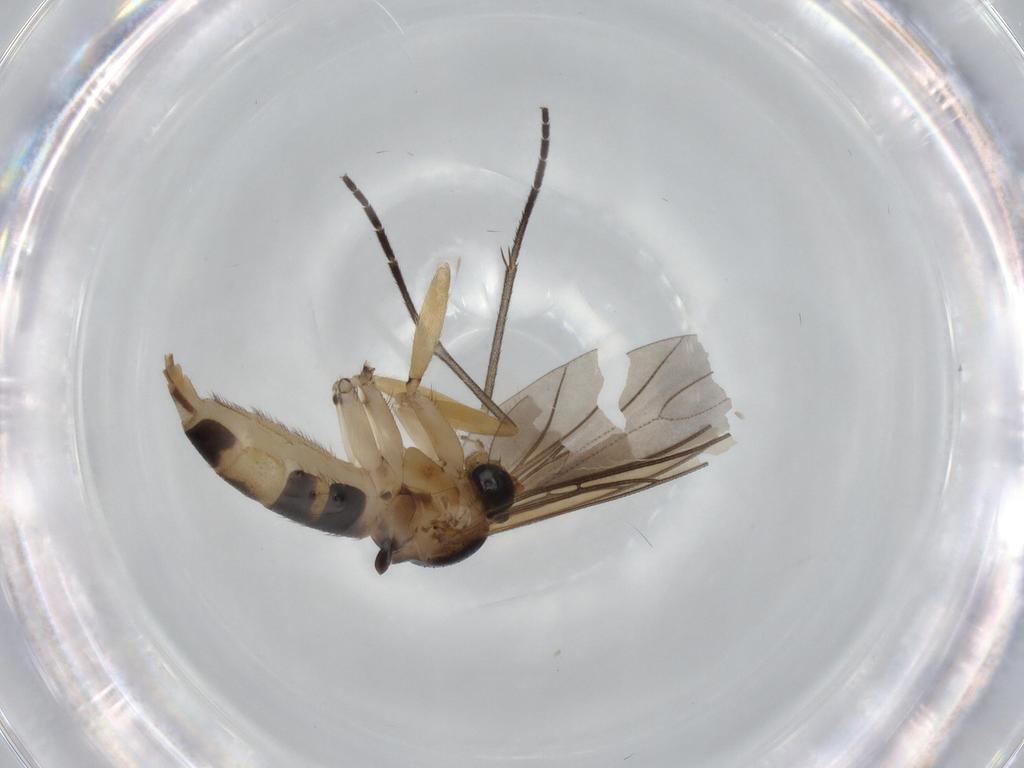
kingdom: Animalia
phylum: Arthropoda
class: Insecta
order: Diptera
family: Sciaridae
